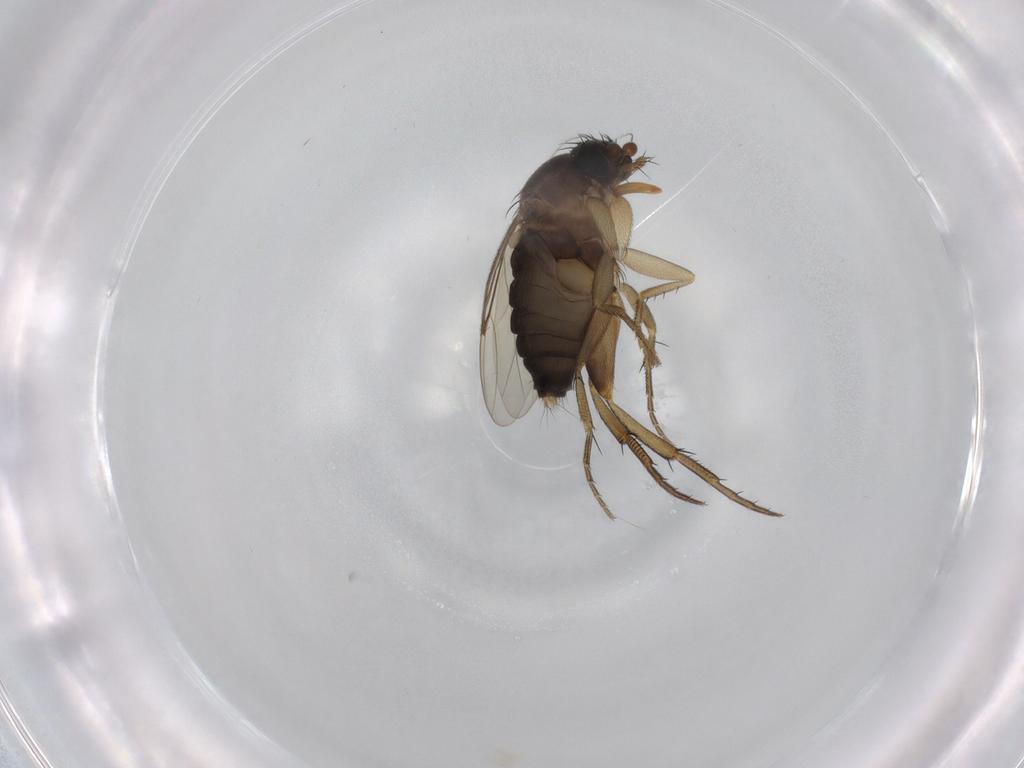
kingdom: Animalia
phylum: Arthropoda
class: Insecta
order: Diptera
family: Phoridae
